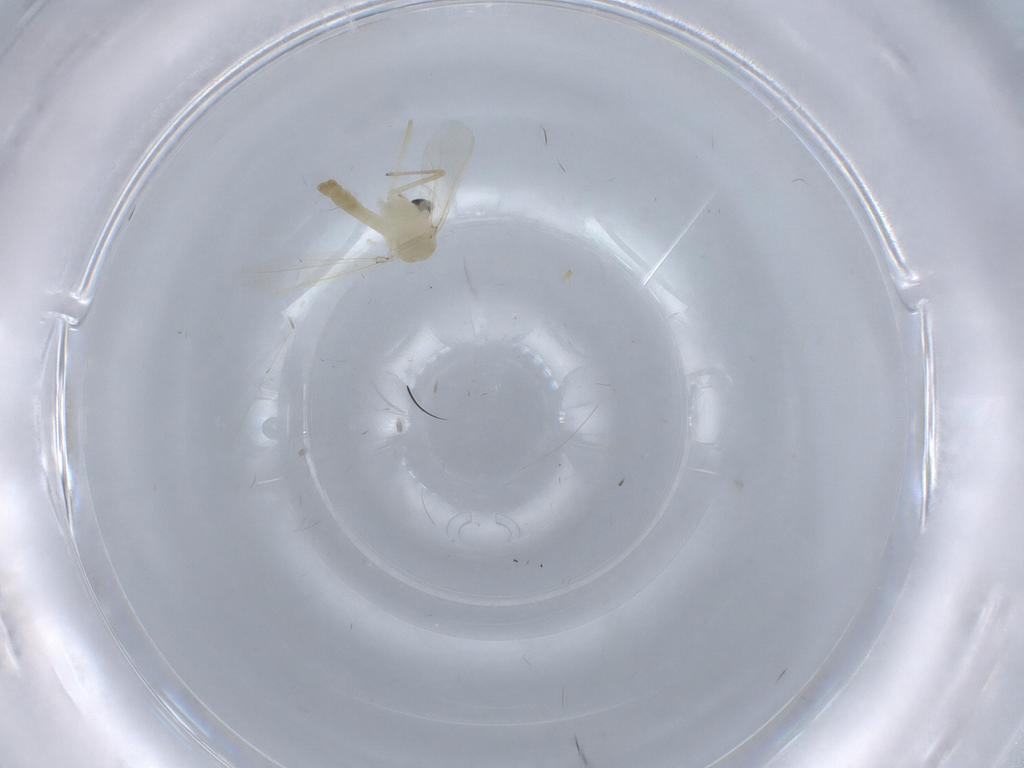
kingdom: Animalia
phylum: Arthropoda
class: Insecta
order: Diptera
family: Chironomidae
